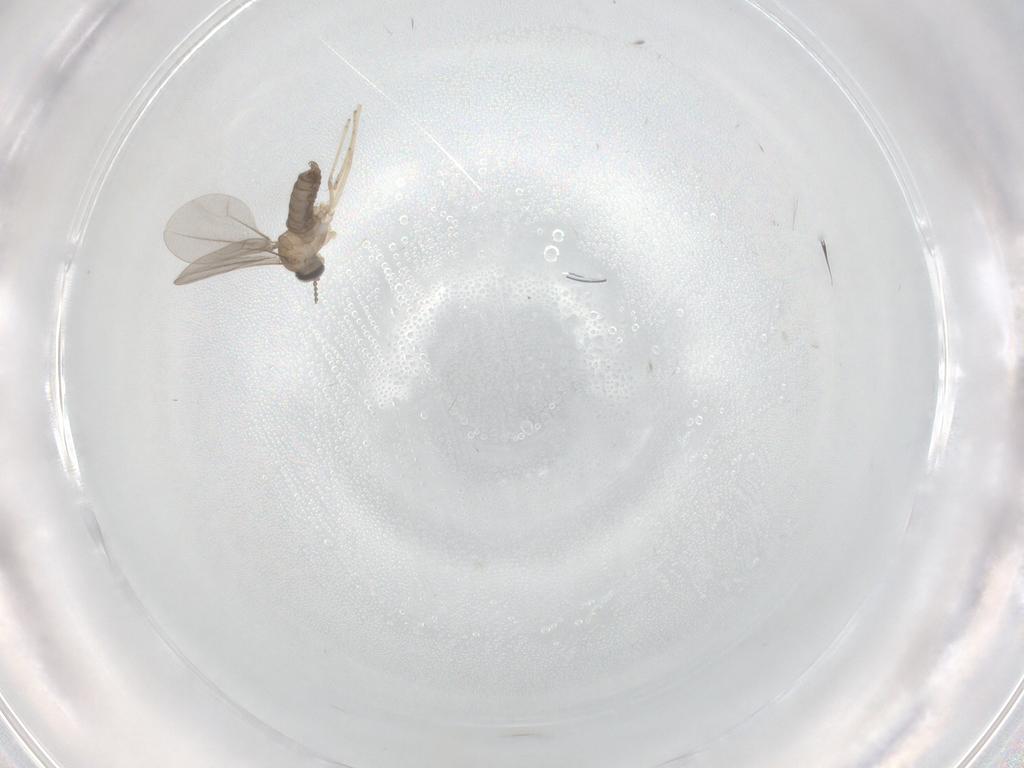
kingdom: Animalia
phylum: Arthropoda
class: Insecta
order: Diptera
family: Cecidomyiidae
